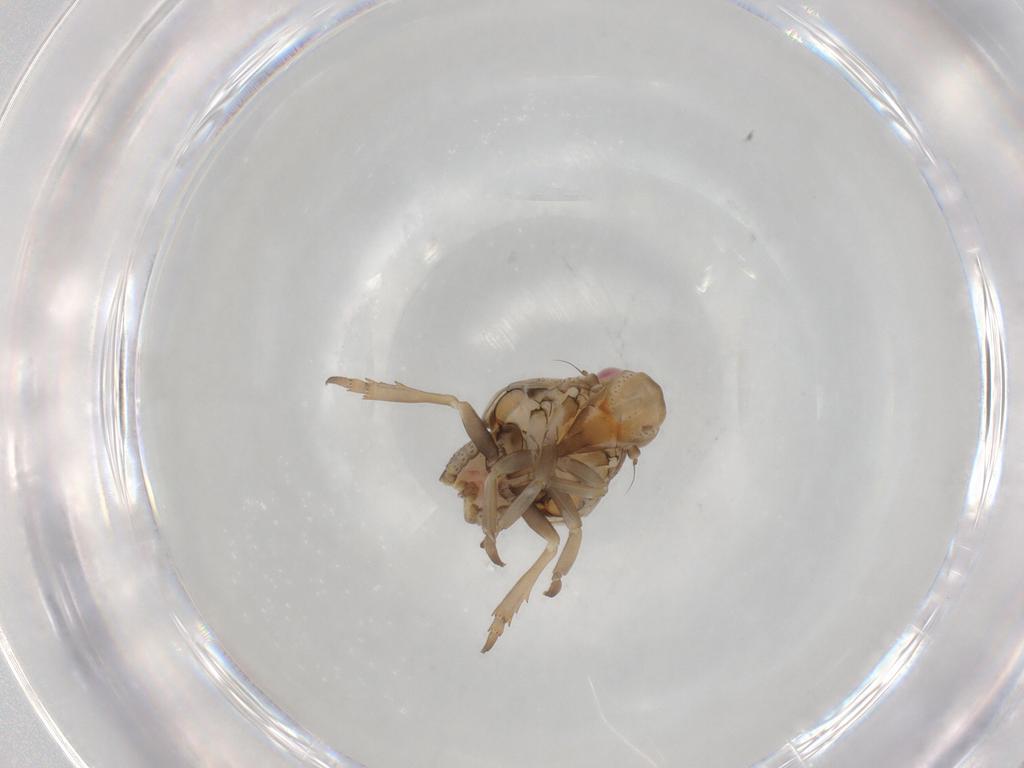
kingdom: Animalia
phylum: Arthropoda
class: Insecta
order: Hemiptera
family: Flatidae
